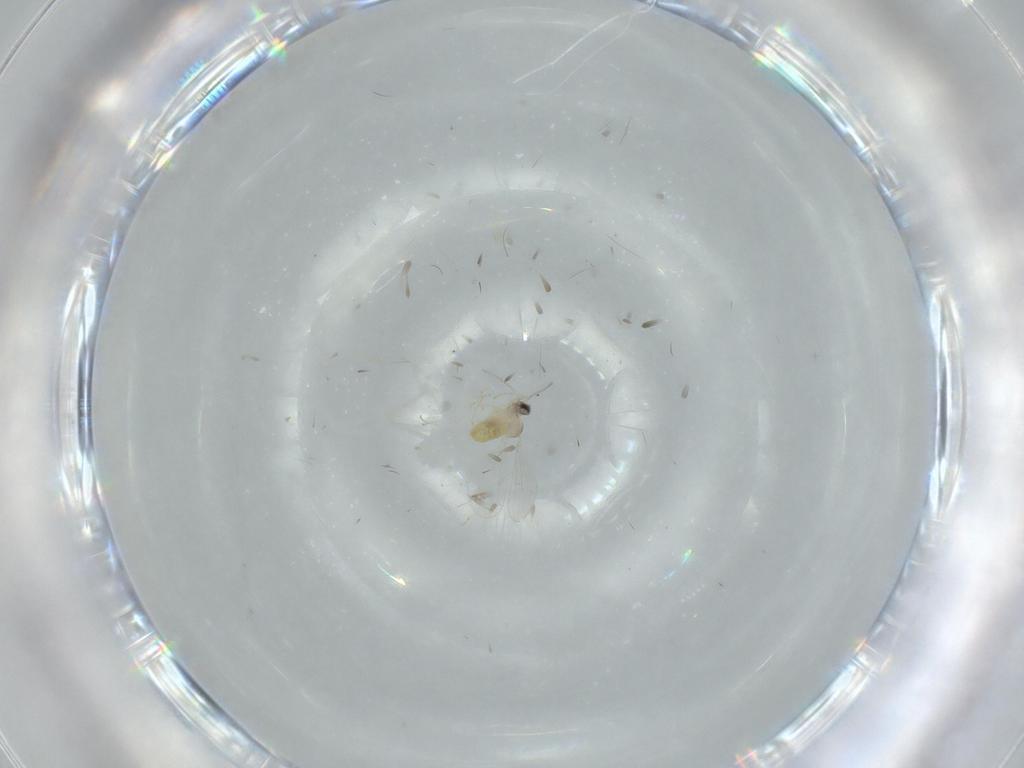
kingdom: Animalia
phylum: Arthropoda
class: Insecta
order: Diptera
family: Cecidomyiidae
